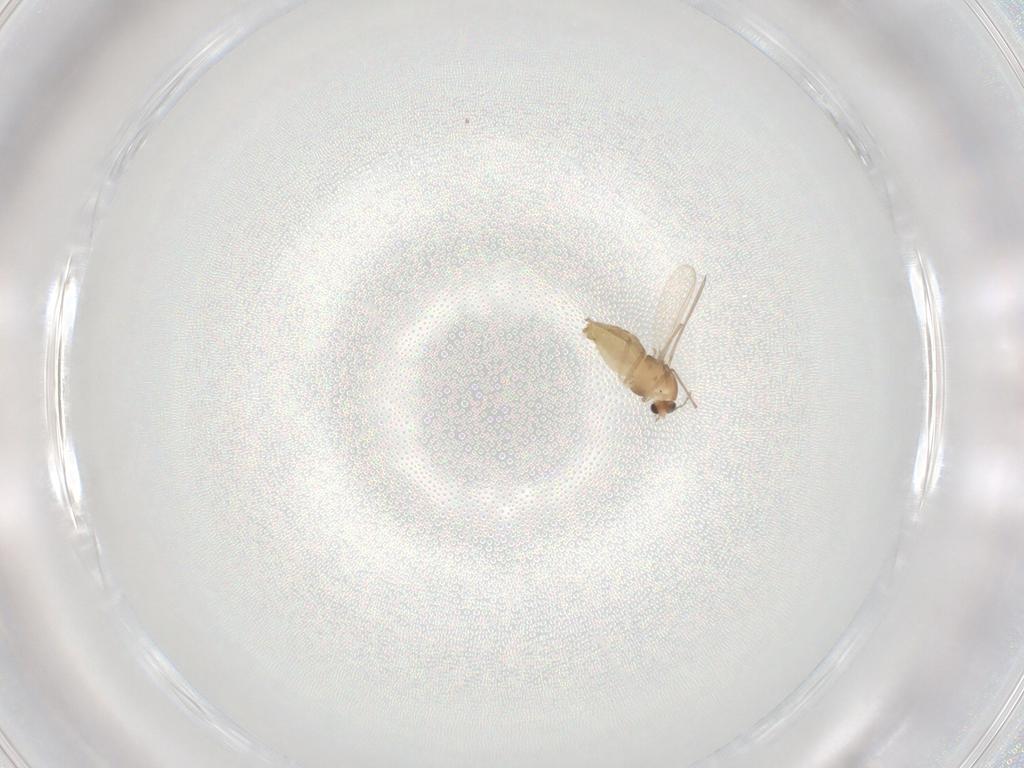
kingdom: Animalia
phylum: Arthropoda
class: Insecta
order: Diptera
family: Chironomidae
